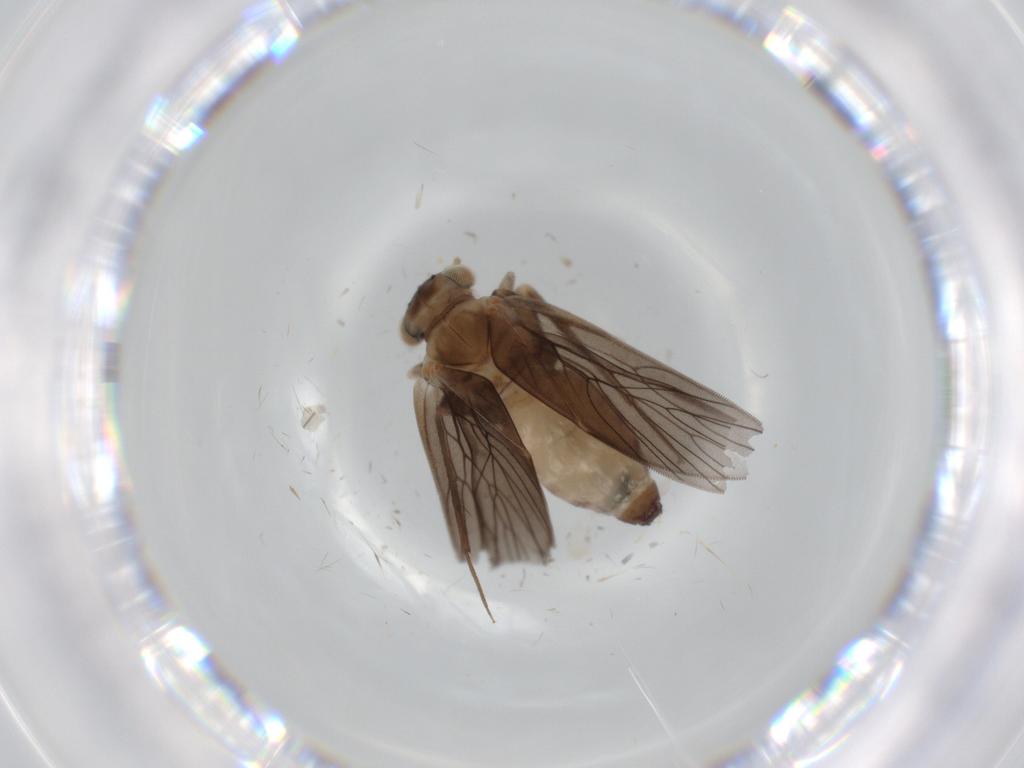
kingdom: Animalia
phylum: Arthropoda
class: Insecta
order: Psocodea
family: Lepidopsocidae
